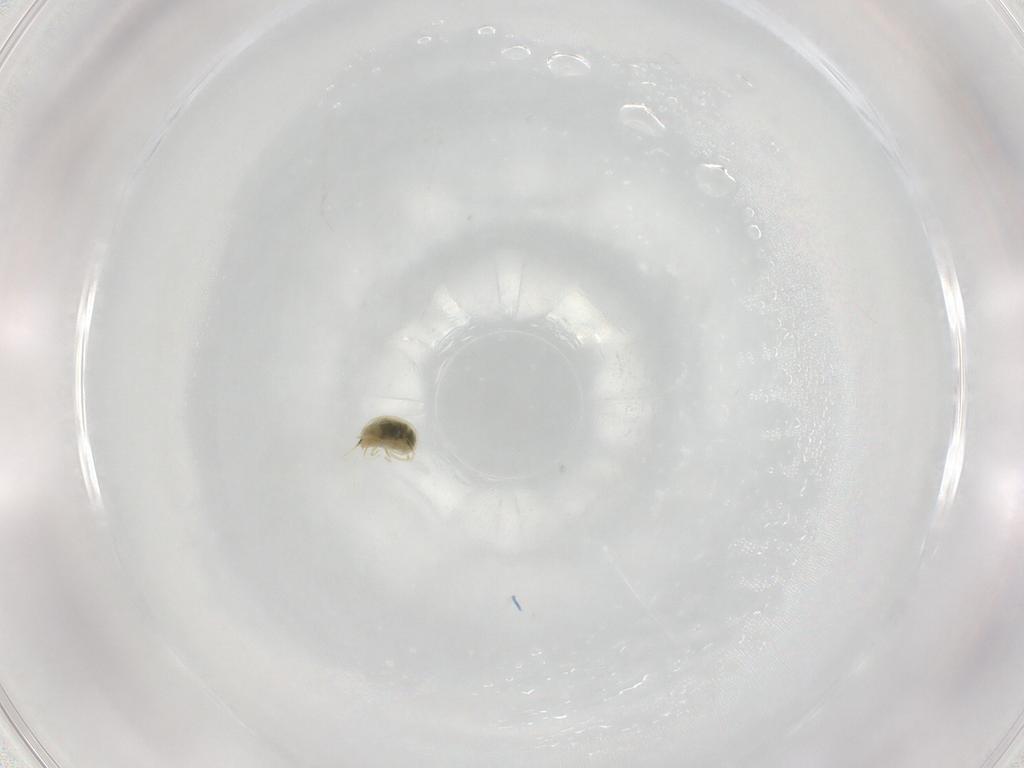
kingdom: Animalia
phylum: Arthropoda
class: Arachnida
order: Trombidiformes
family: Tetranychidae
